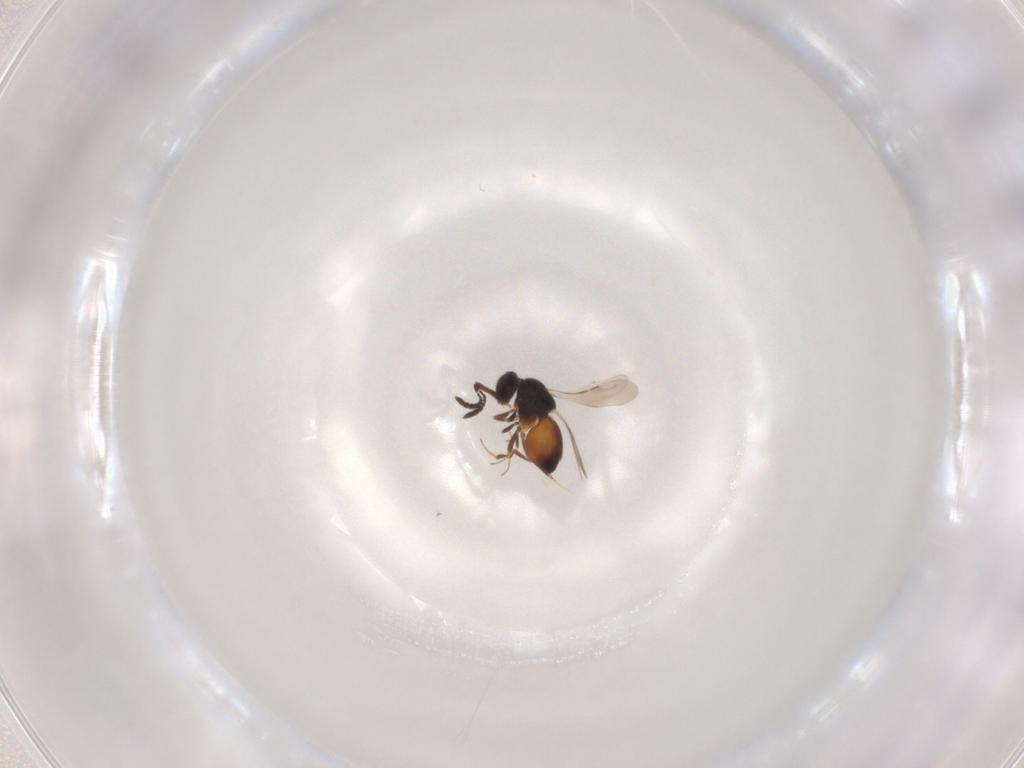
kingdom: Animalia
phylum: Arthropoda
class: Insecta
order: Hymenoptera
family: Ceraphronidae
